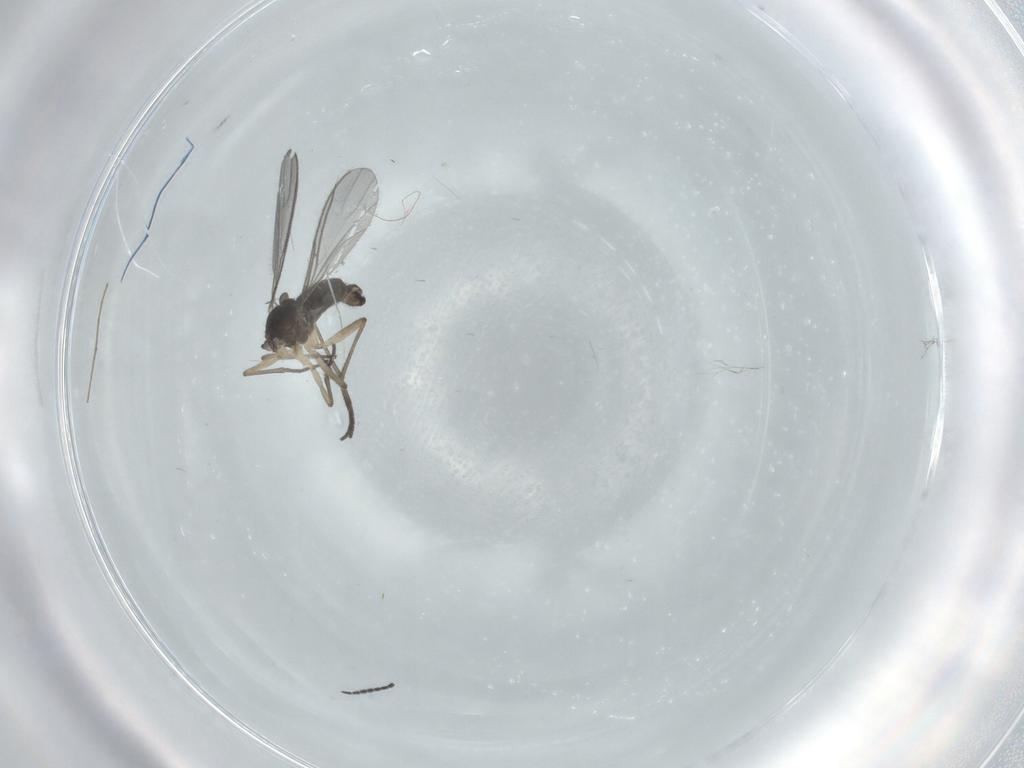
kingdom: Animalia
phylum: Arthropoda
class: Insecta
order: Diptera
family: Sciaridae
